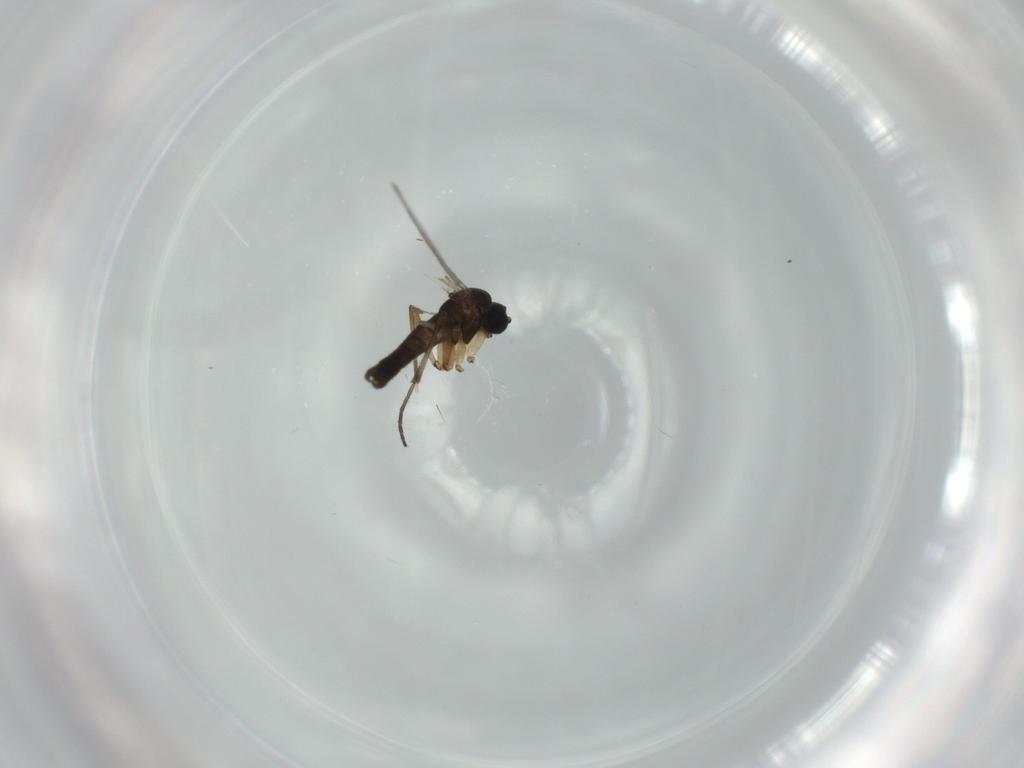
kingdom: Animalia
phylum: Arthropoda
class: Insecta
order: Diptera
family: Sciaridae
